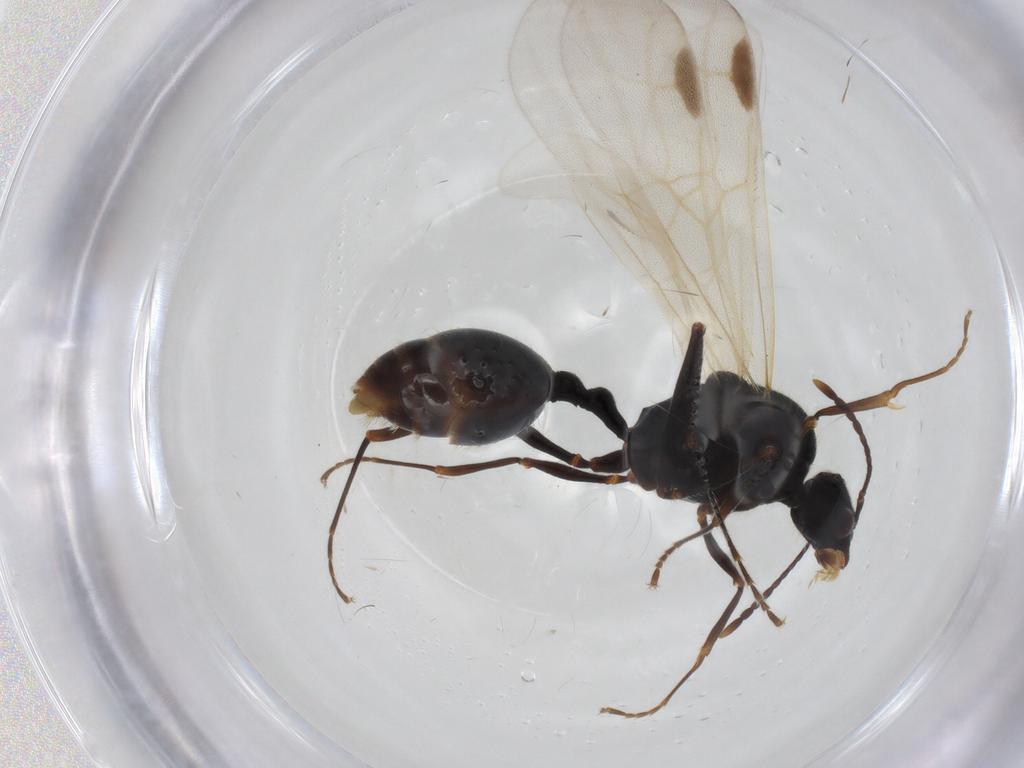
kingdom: Animalia
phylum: Arthropoda
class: Insecta
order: Hymenoptera
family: Formicidae
